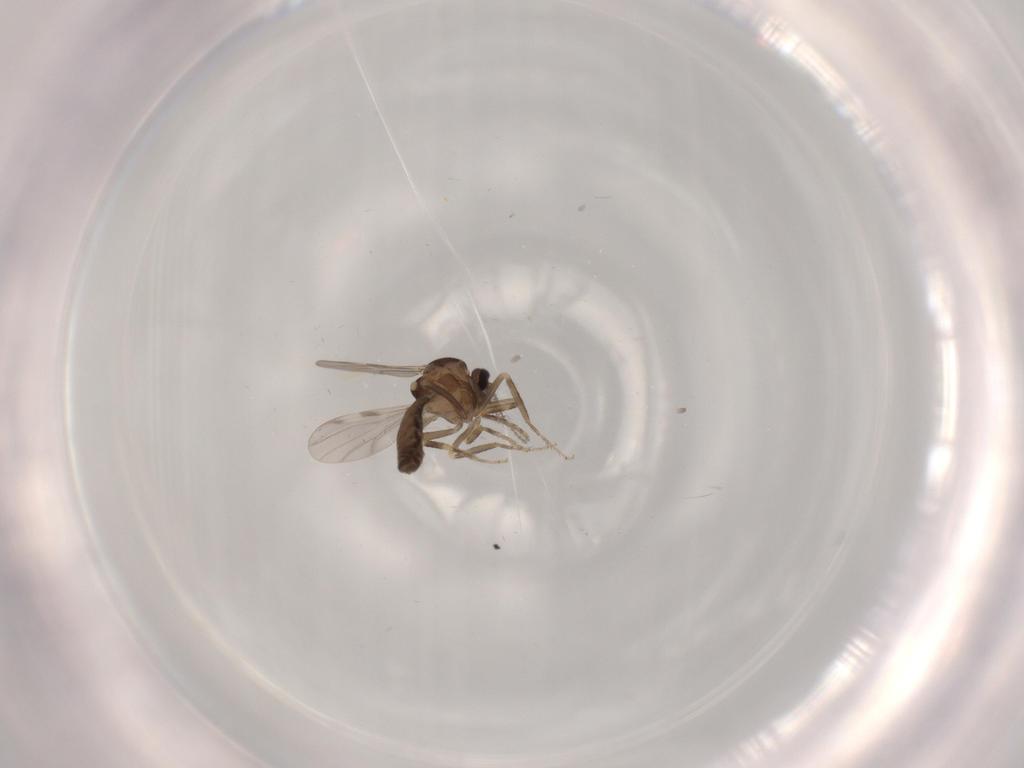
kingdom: Animalia
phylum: Arthropoda
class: Insecta
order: Diptera
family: Ceratopogonidae
